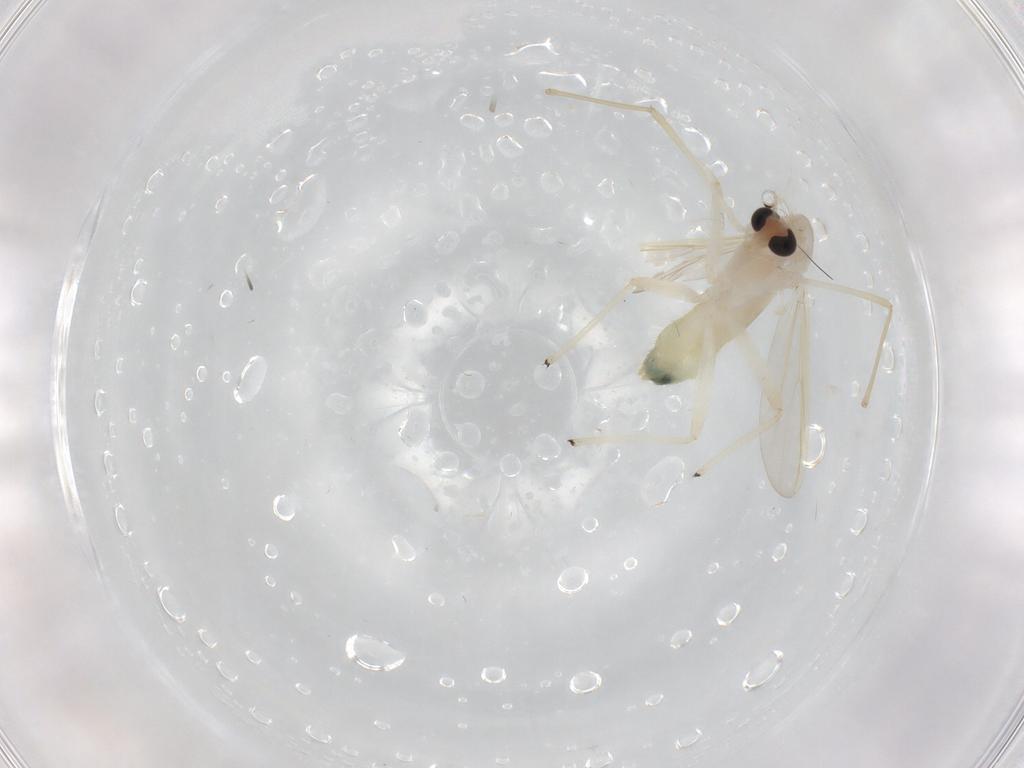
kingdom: Animalia
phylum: Arthropoda
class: Insecta
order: Diptera
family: Chironomidae
